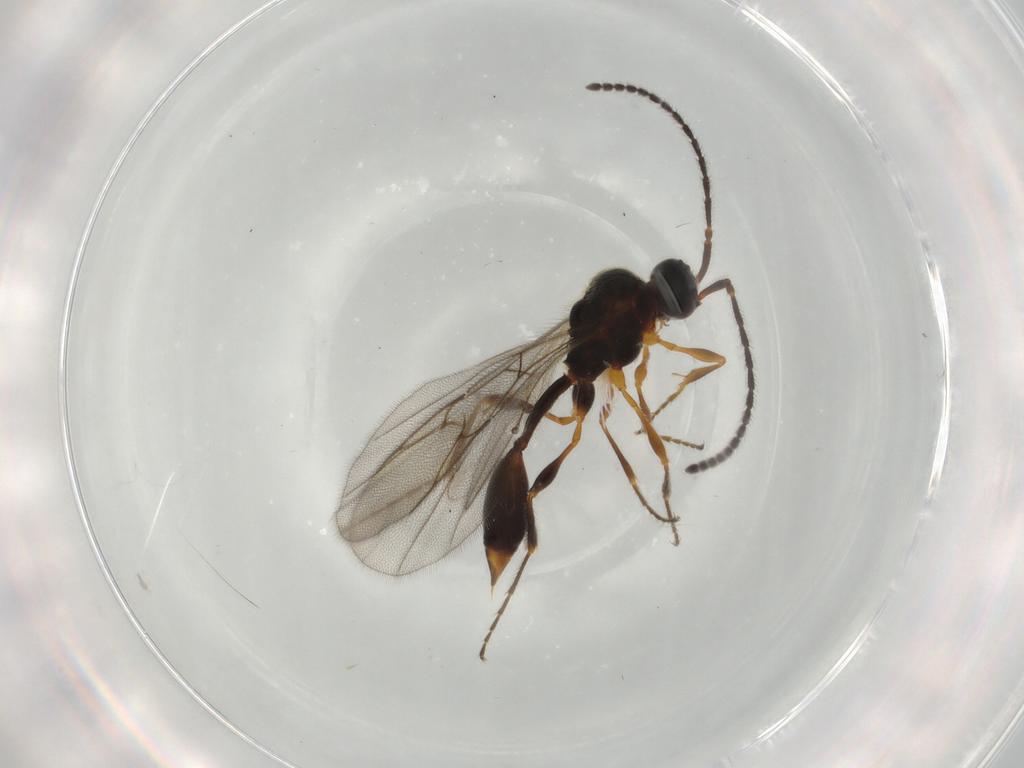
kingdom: Animalia
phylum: Arthropoda
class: Insecta
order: Hymenoptera
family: Diapriidae
